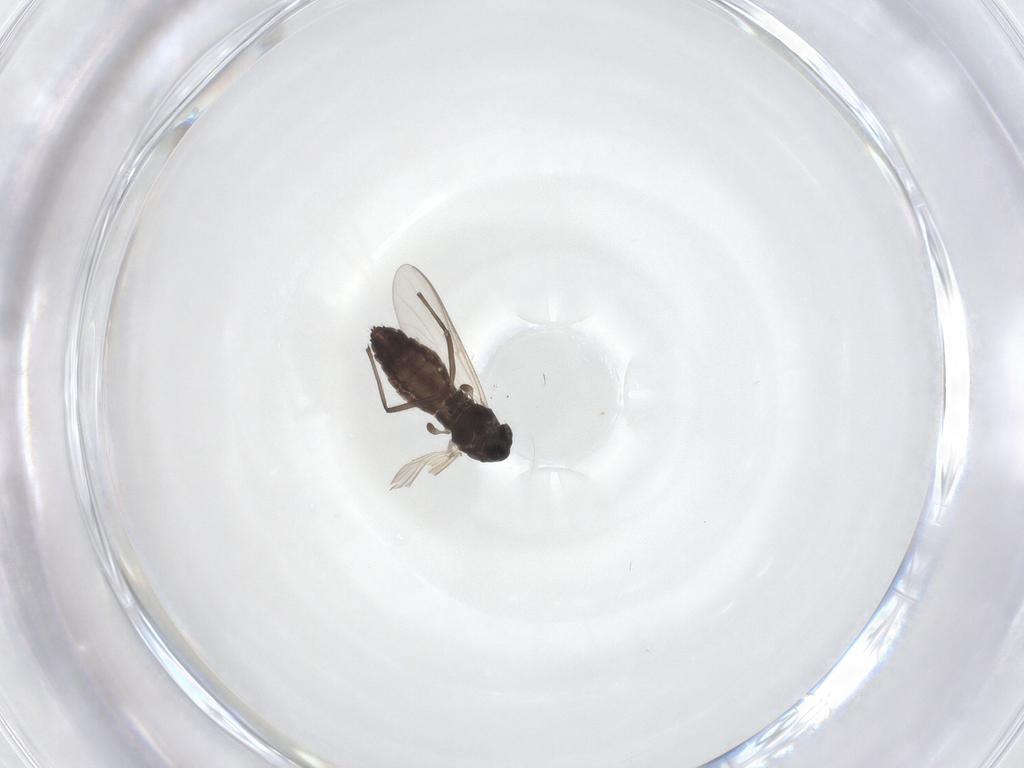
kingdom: Animalia
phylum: Arthropoda
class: Insecta
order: Diptera
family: Chironomidae
